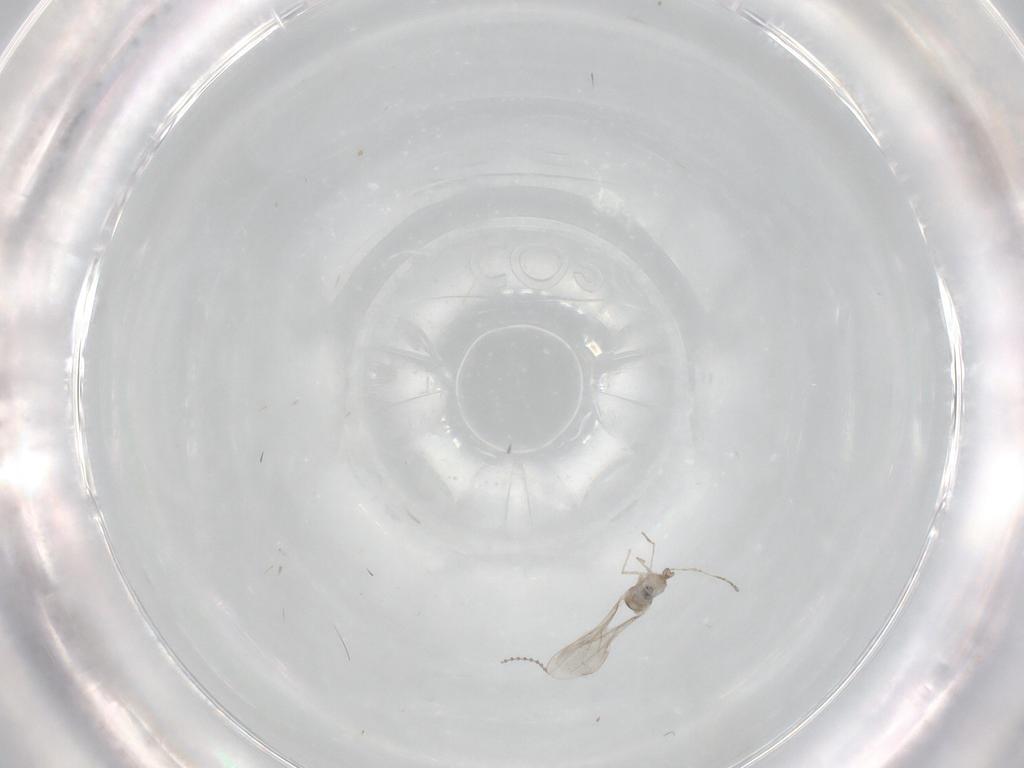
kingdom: Animalia
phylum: Arthropoda
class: Insecta
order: Diptera
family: Cecidomyiidae
